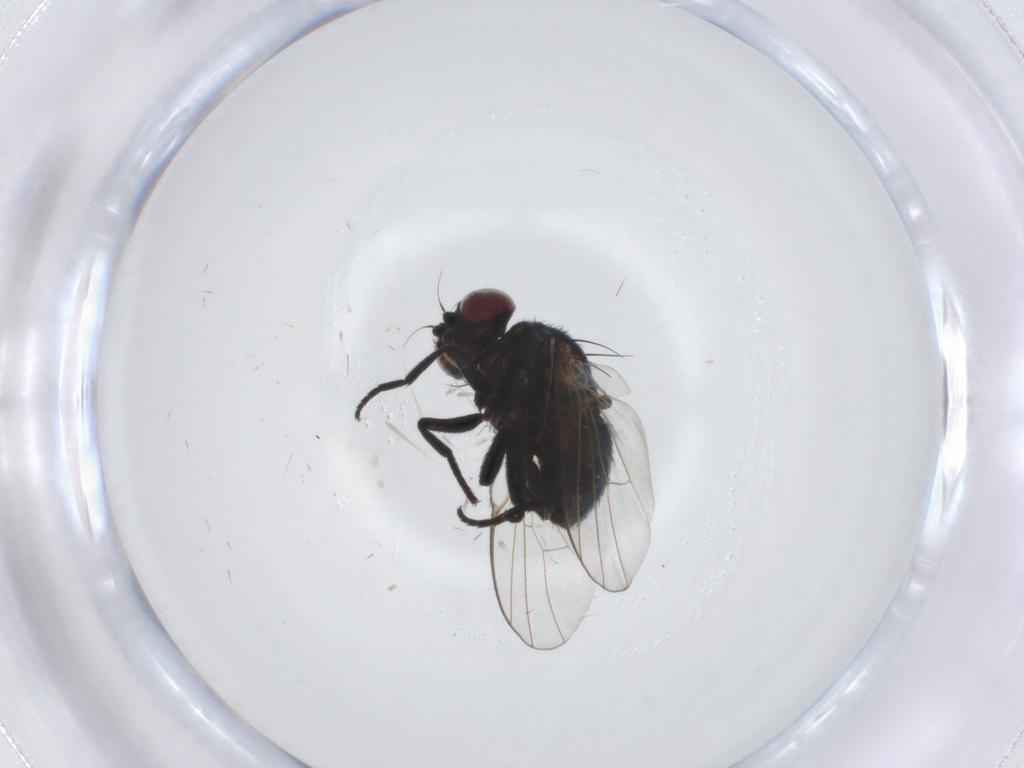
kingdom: Animalia
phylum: Arthropoda
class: Insecta
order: Diptera
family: Agromyzidae
